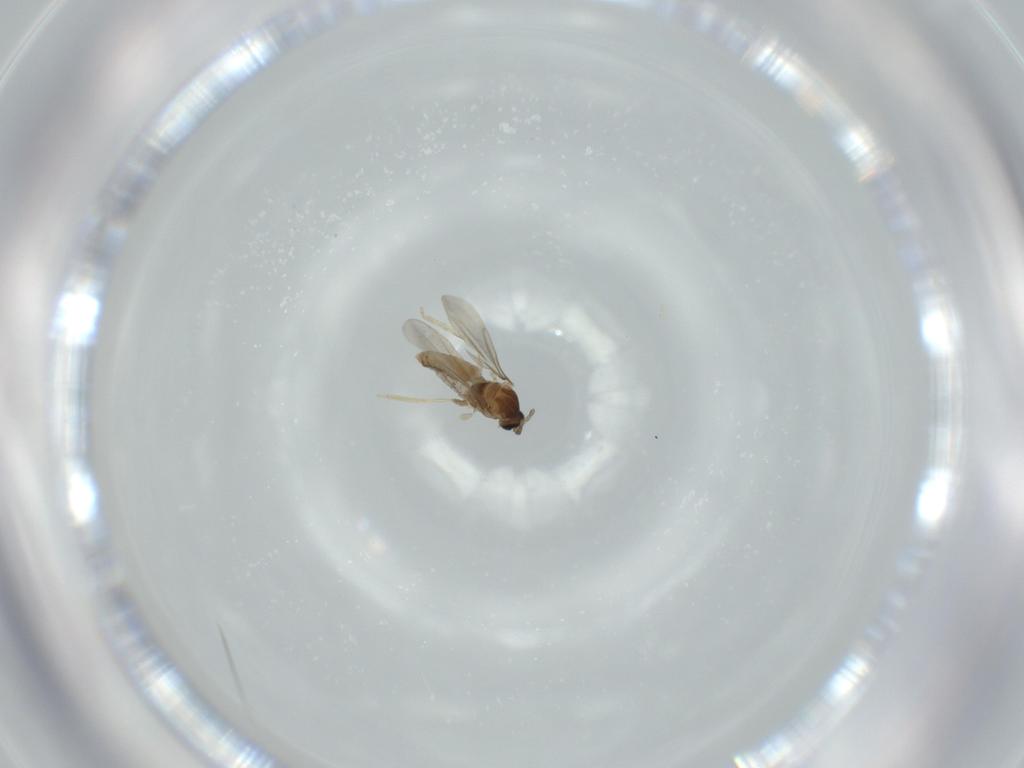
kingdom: Animalia
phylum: Arthropoda
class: Insecta
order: Diptera
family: Cecidomyiidae
